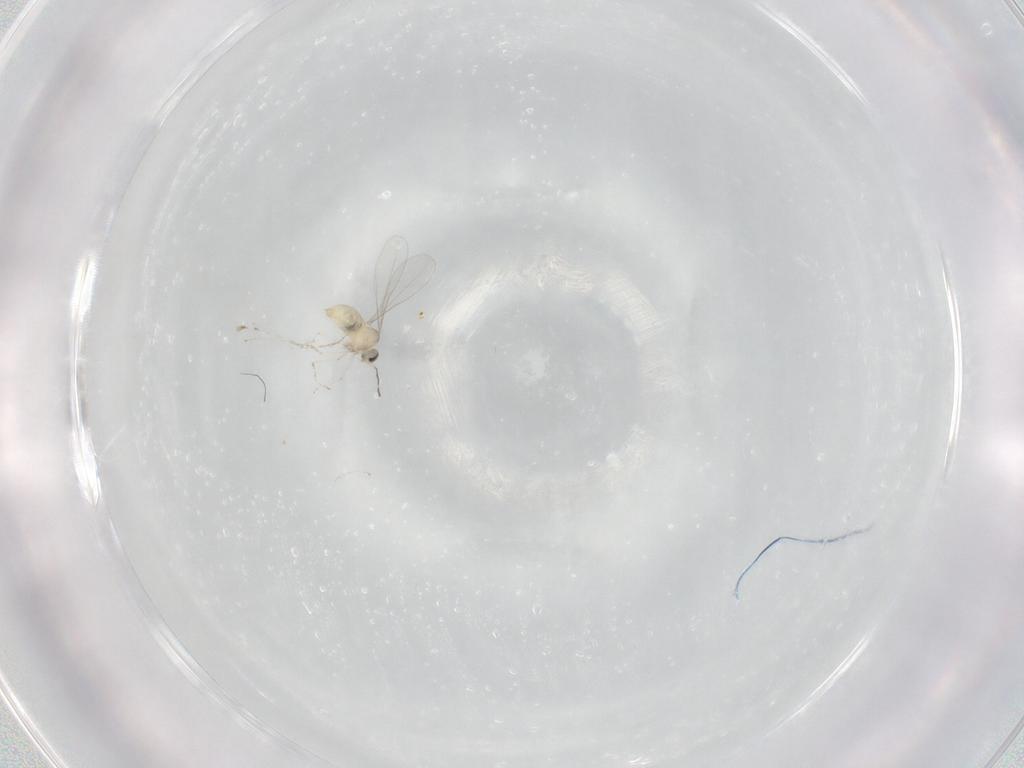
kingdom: Animalia
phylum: Arthropoda
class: Insecta
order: Diptera
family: Cecidomyiidae
